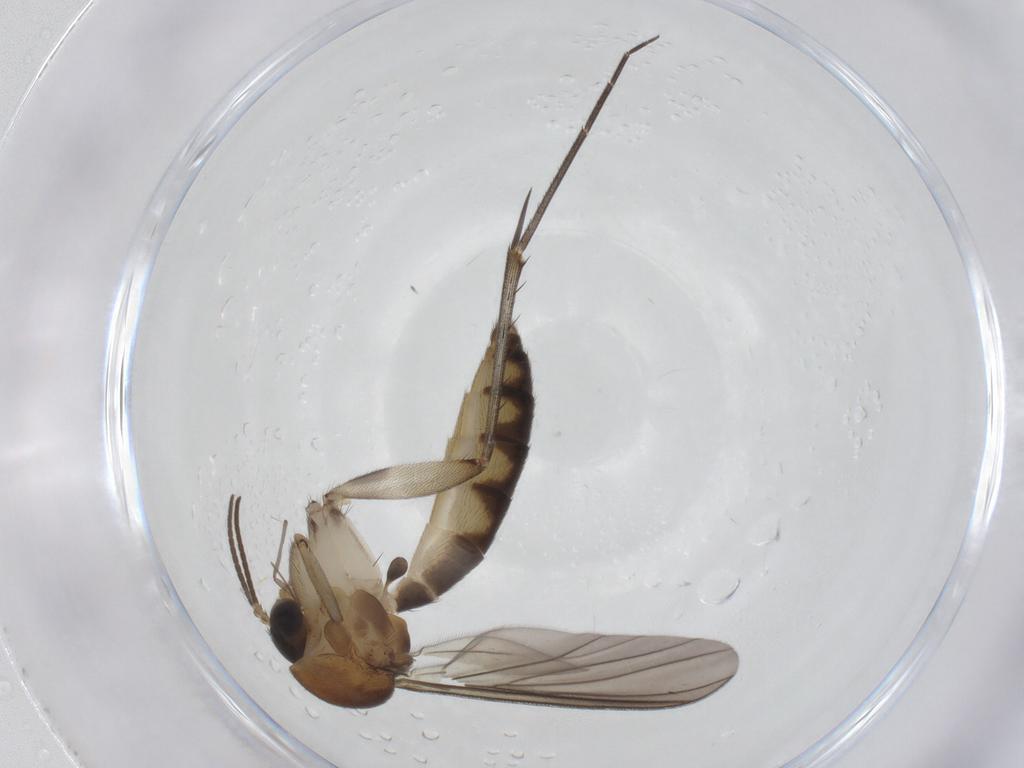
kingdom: Animalia
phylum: Arthropoda
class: Insecta
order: Diptera
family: Mycetophilidae
